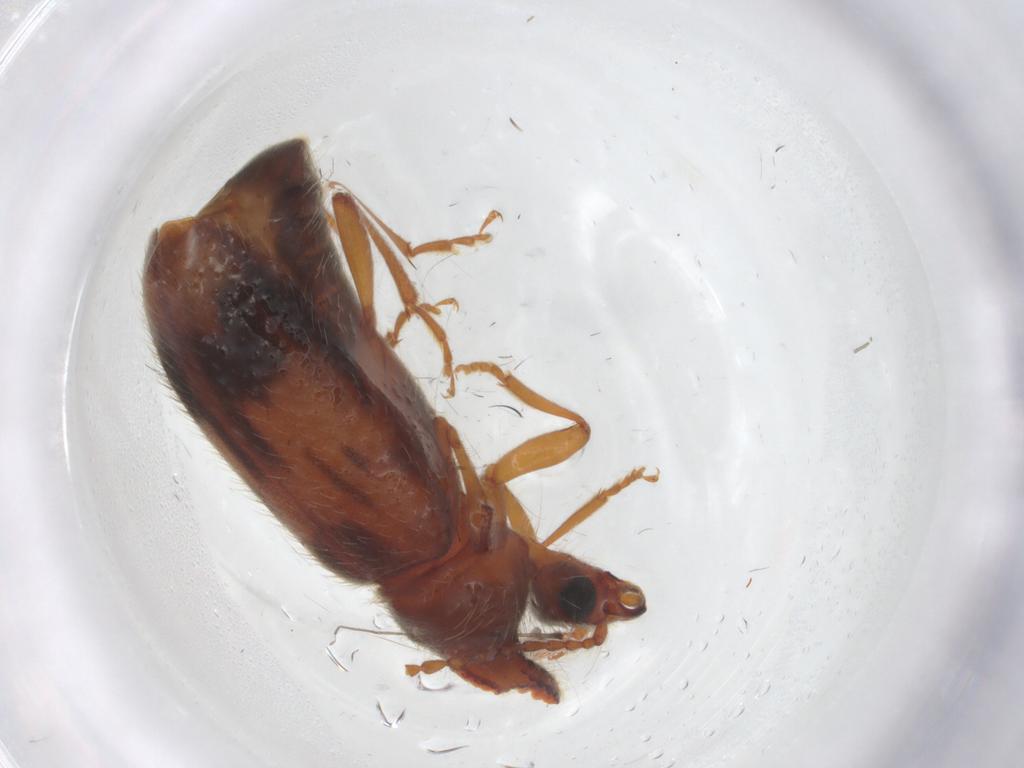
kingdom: Animalia
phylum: Arthropoda
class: Insecta
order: Coleoptera
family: Anthicidae
